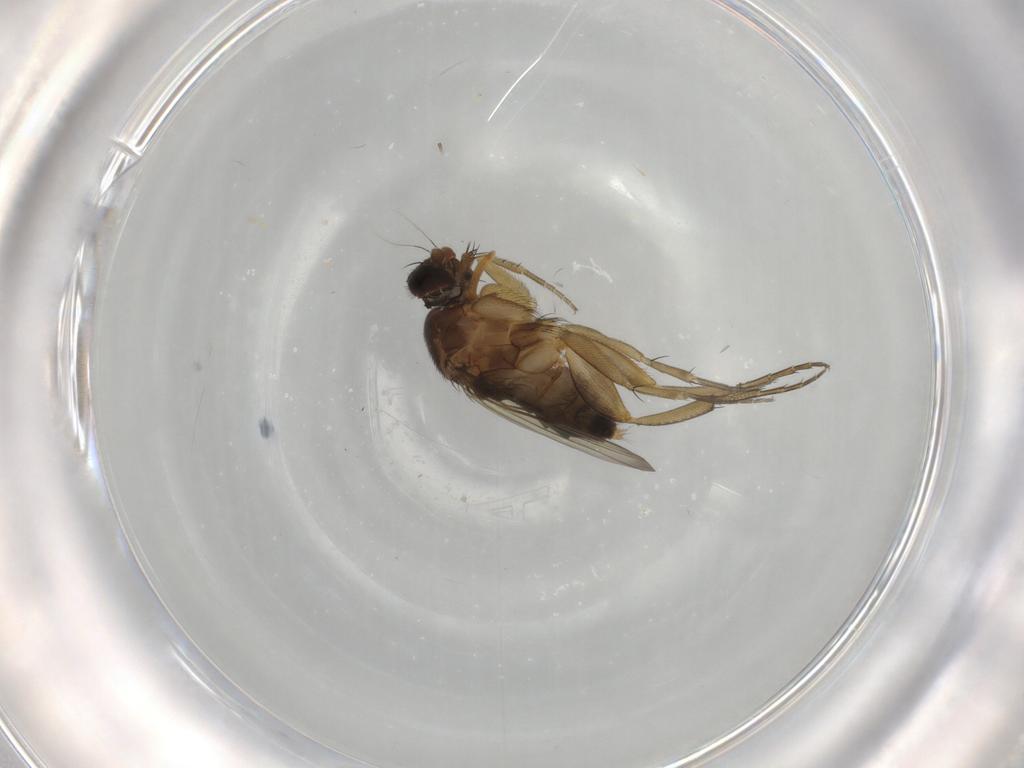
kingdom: Animalia
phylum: Arthropoda
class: Insecta
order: Diptera
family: Phoridae
